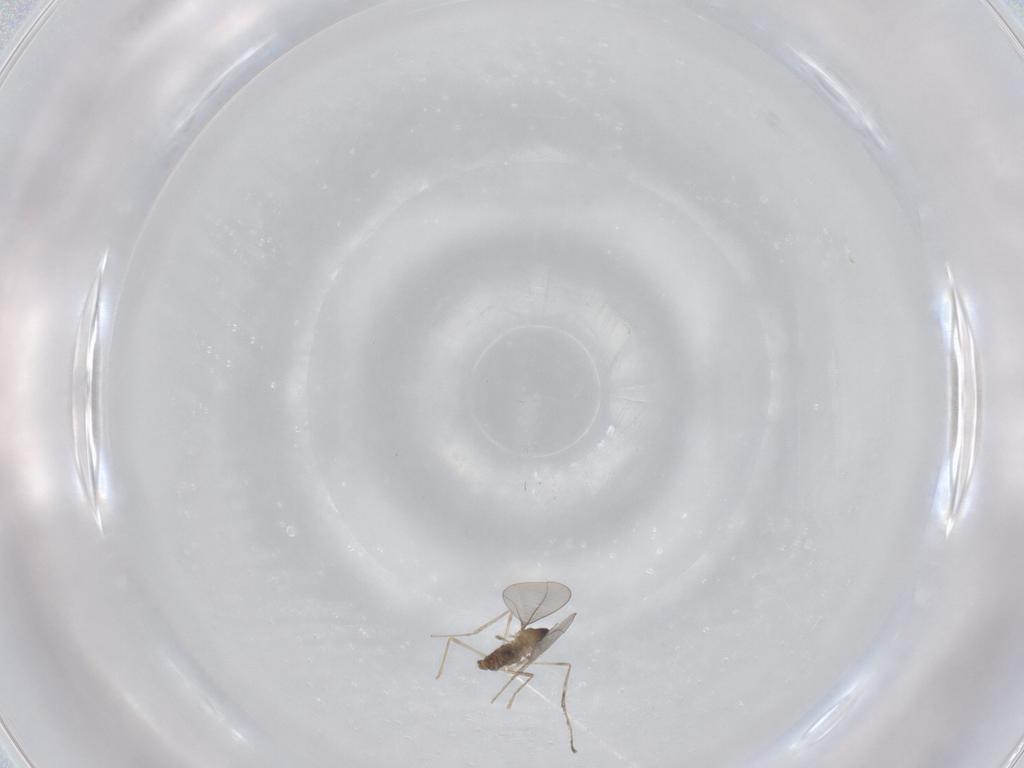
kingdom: Animalia
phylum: Arthropoda
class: Insecta
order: Diptera
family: Cecidomyiidae
